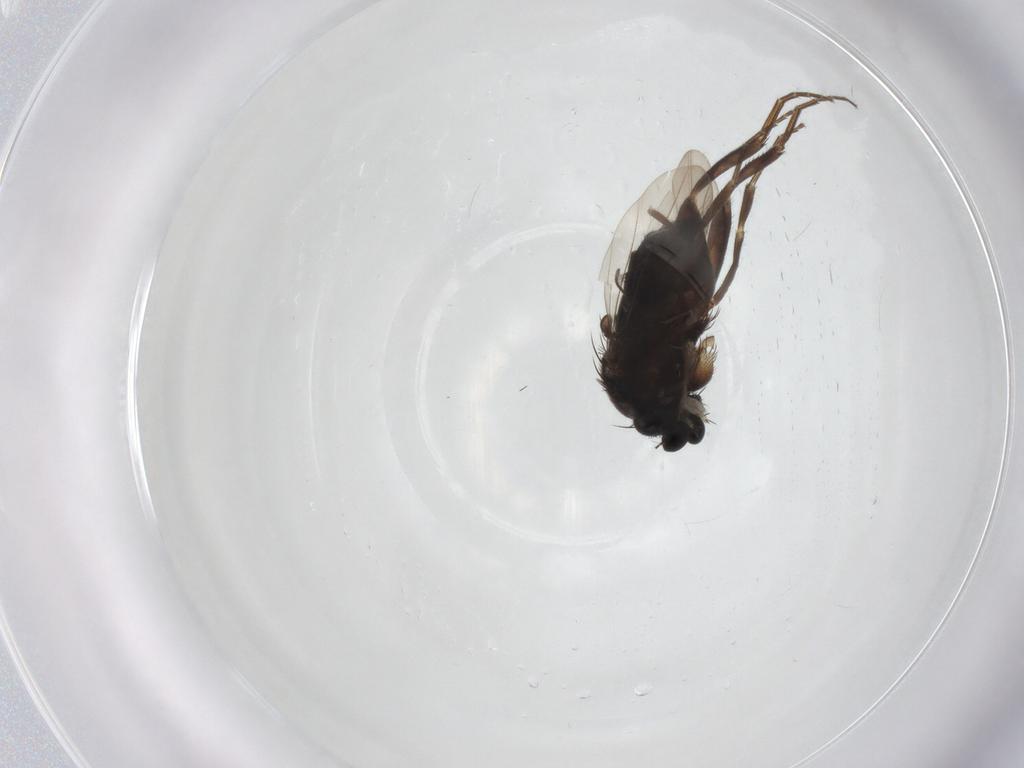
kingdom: Animalia
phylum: Arthropoda
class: Insecta
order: Diptera
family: Phoridae
